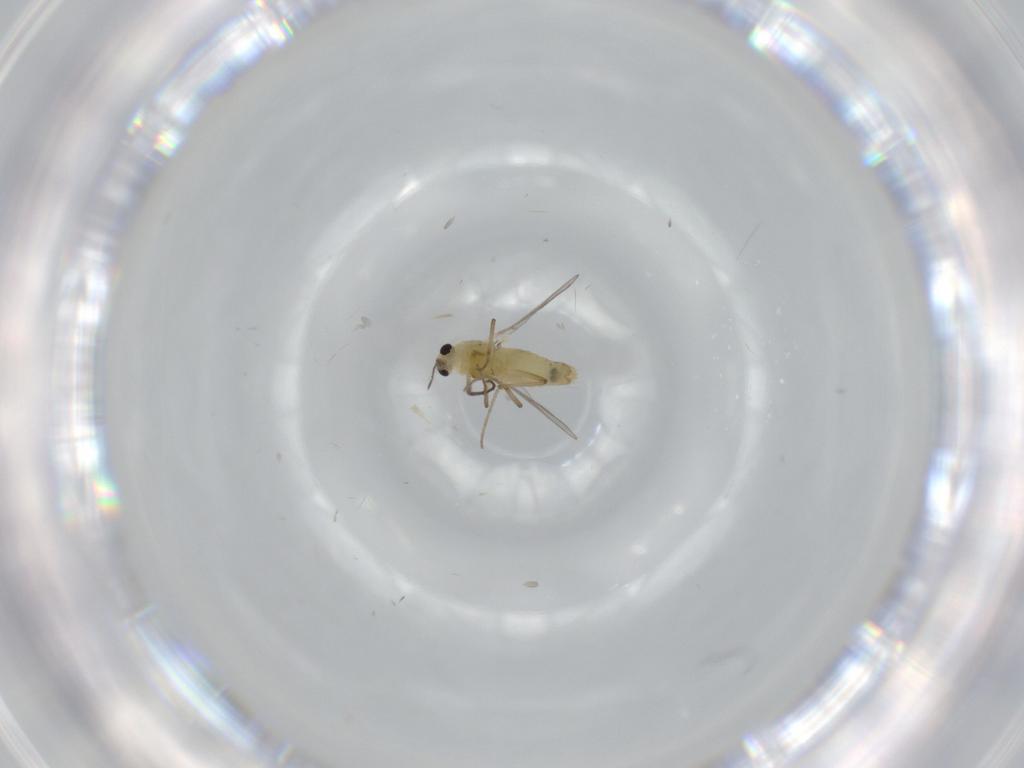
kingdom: Animalia
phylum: Arthropoda
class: Insecta
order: Diptera
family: Chironomidae
